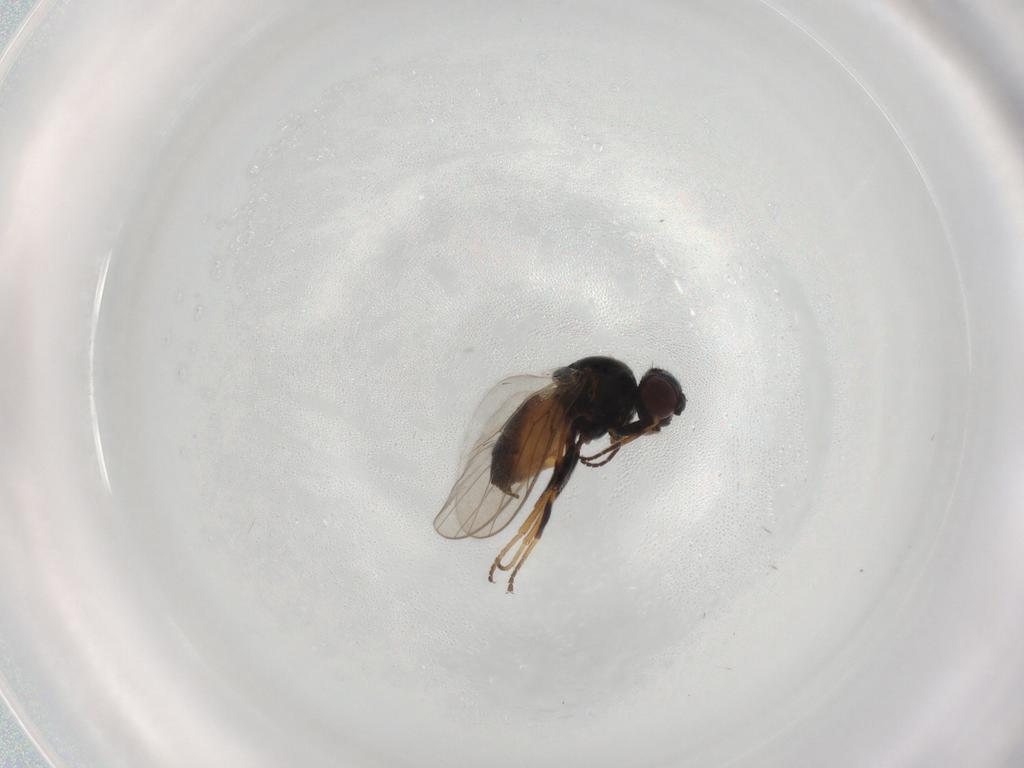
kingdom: Animalia
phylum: Arthropoda
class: Insecta
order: Diptera
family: Chloropidae
